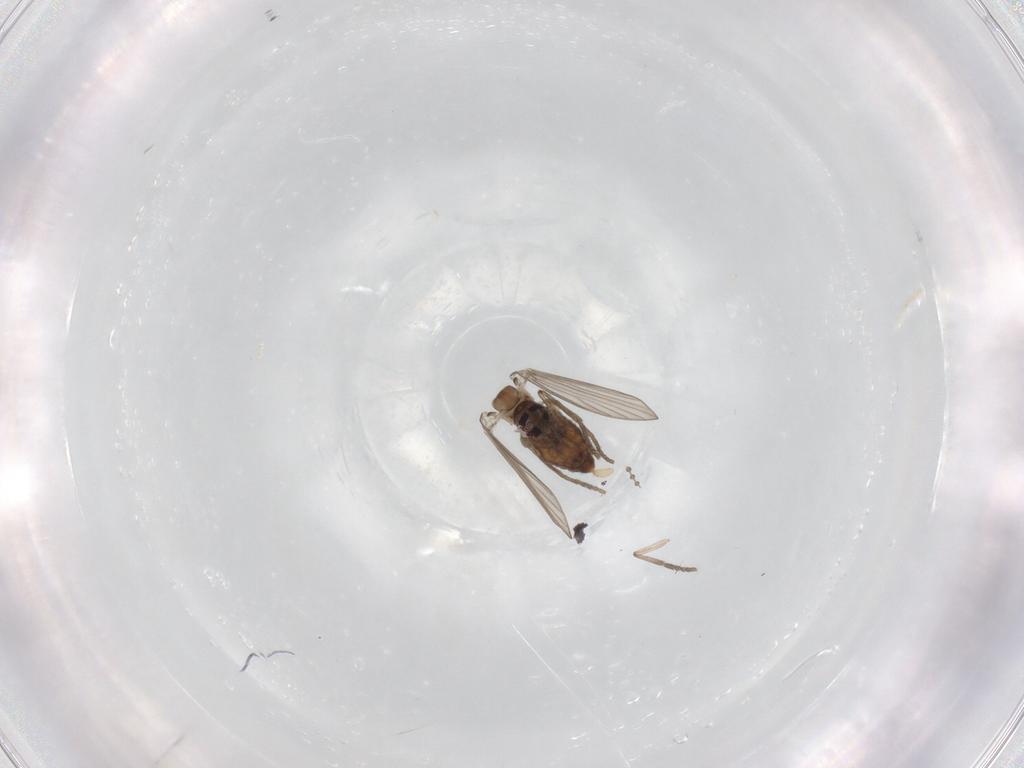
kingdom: Animalia
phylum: Arthropoda
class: Insecta
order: Diptera
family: Psychodidae
